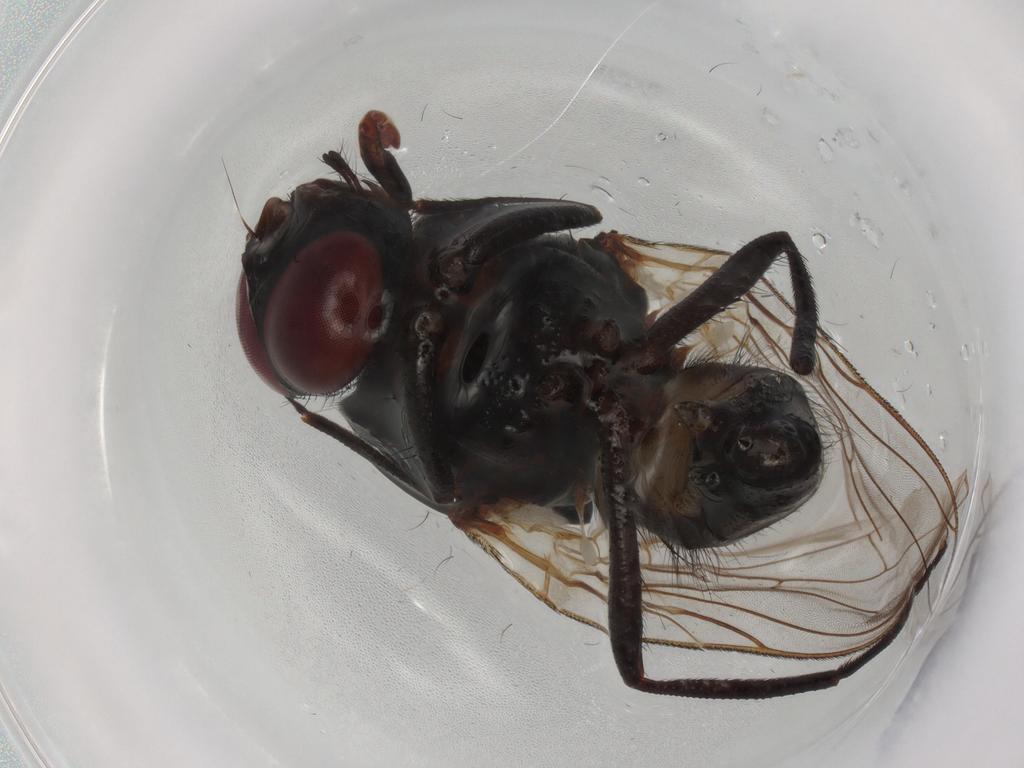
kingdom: Animalia
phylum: Arthropoda
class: Insecta
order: Diptera
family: Anthomyiidae
